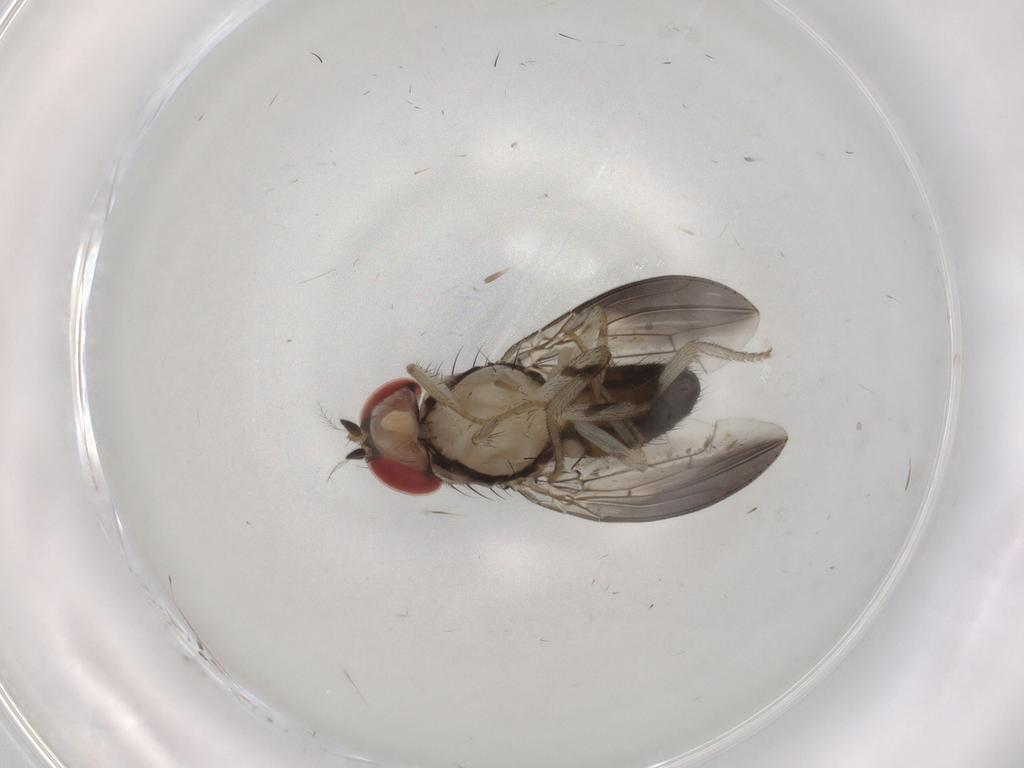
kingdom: Animalia
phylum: Arthropoda
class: Insecta
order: Diptera
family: Drosophilidae
